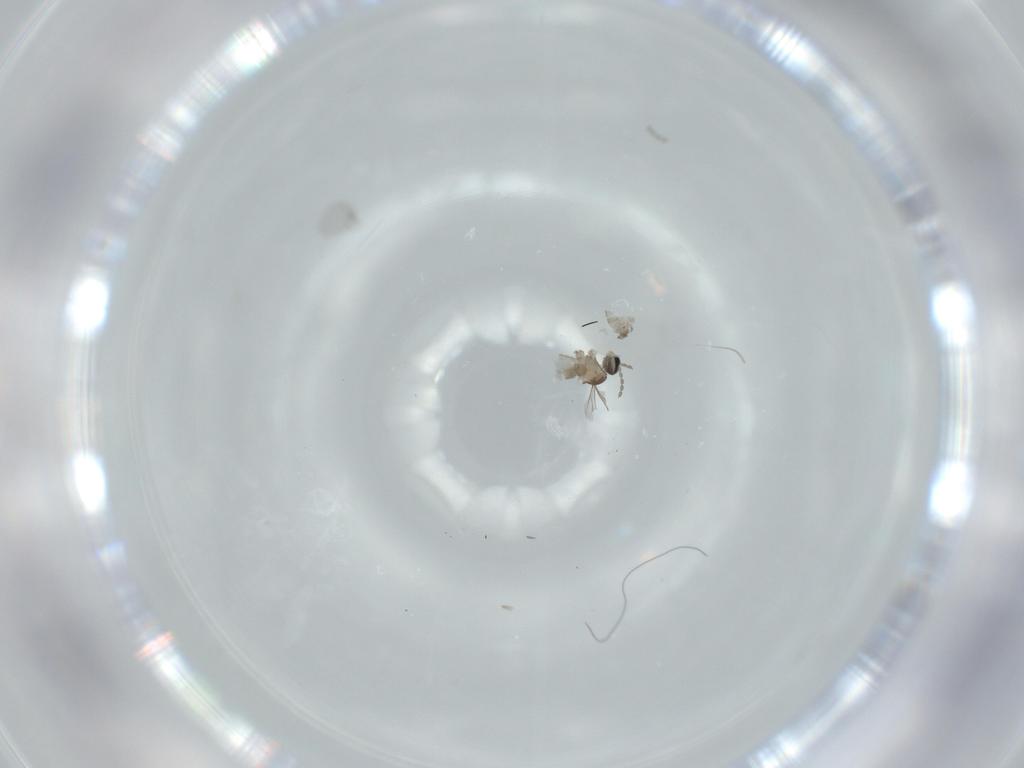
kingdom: Animalia
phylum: Arthropoda
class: Insecta
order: Diptera
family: Cecidomyiidae
